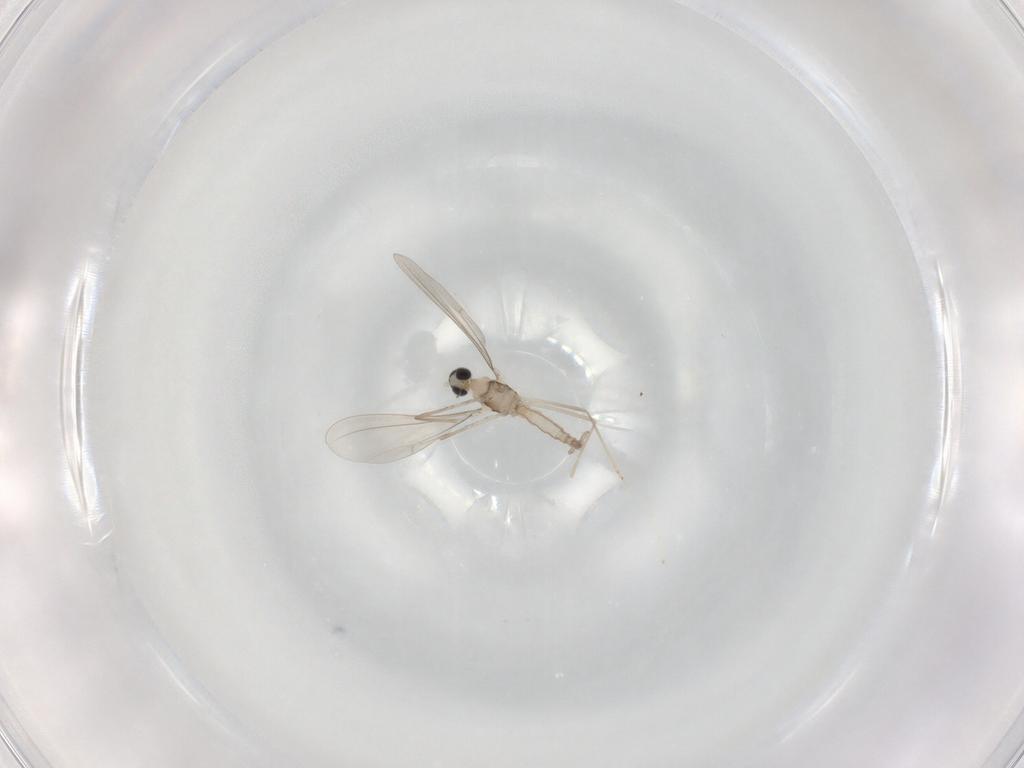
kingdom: Animalia
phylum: Arthropoda
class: Insecta
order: Diptera
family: Cecidomyiidae
